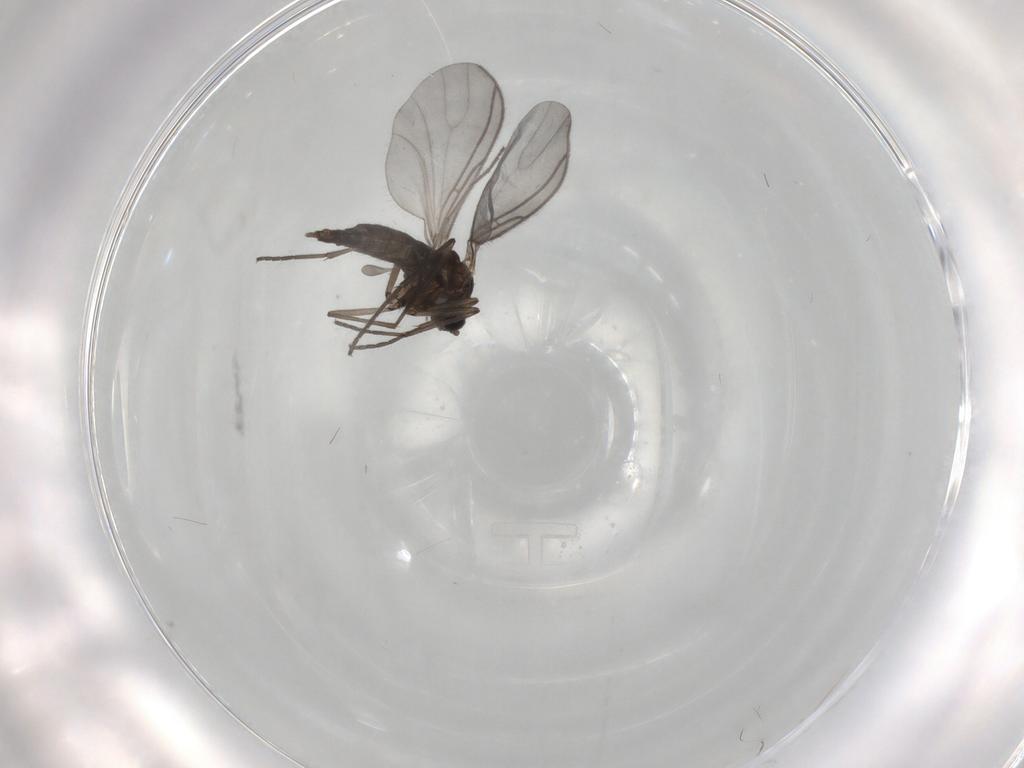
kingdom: Animalia
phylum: Arthropoda
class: Insecta
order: Diptera
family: Sciaridae
